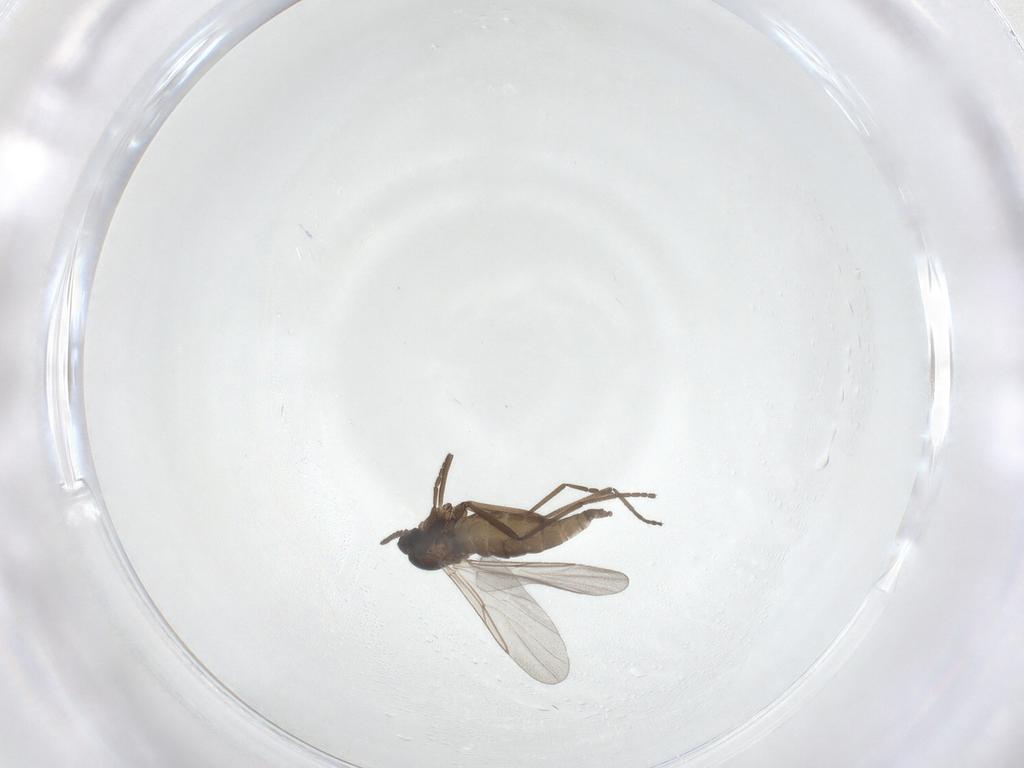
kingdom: Animalia
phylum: Arthropoda
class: Insecta
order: Diptera
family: Cecidomyiidae
